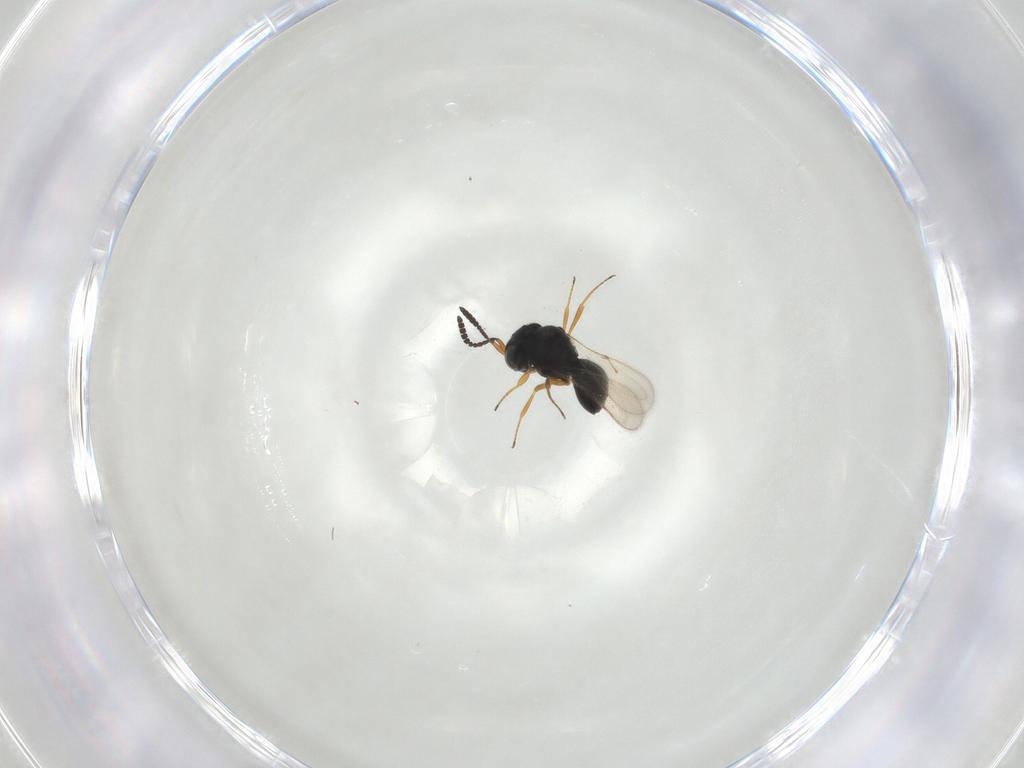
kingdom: Animalia
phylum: Arthropoda
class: Insecta
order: Hymenoptera
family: Scelionidae
